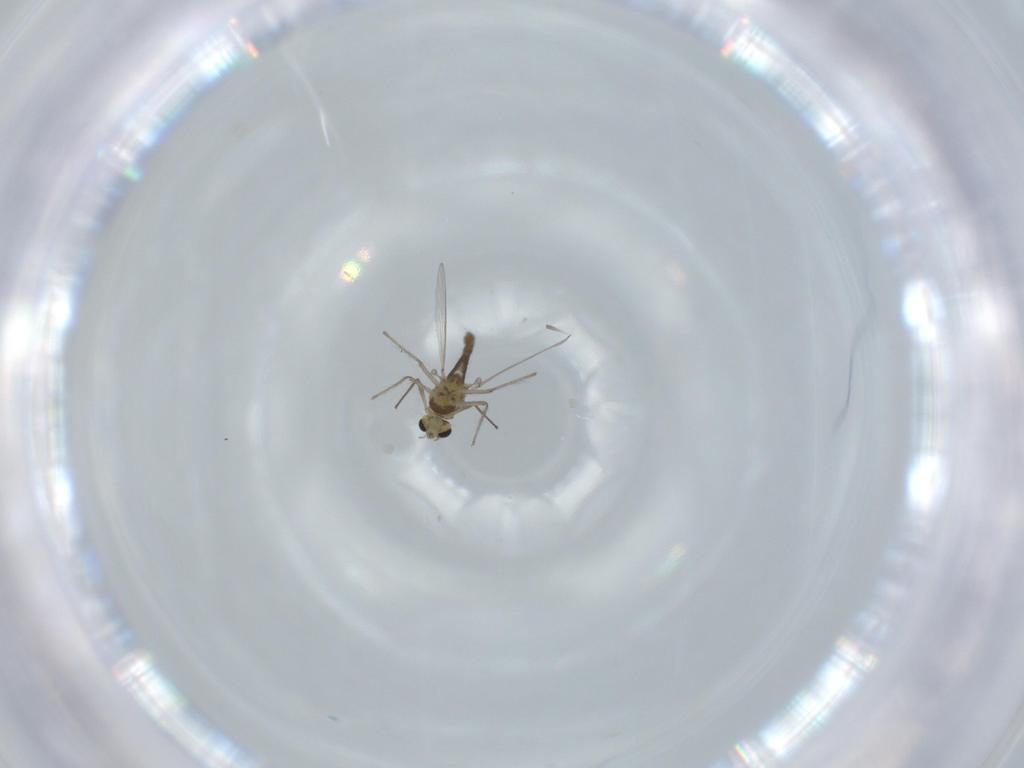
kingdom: Animalia
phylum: Arthropoda
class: Insecta
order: Diptera
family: Chironomidae
